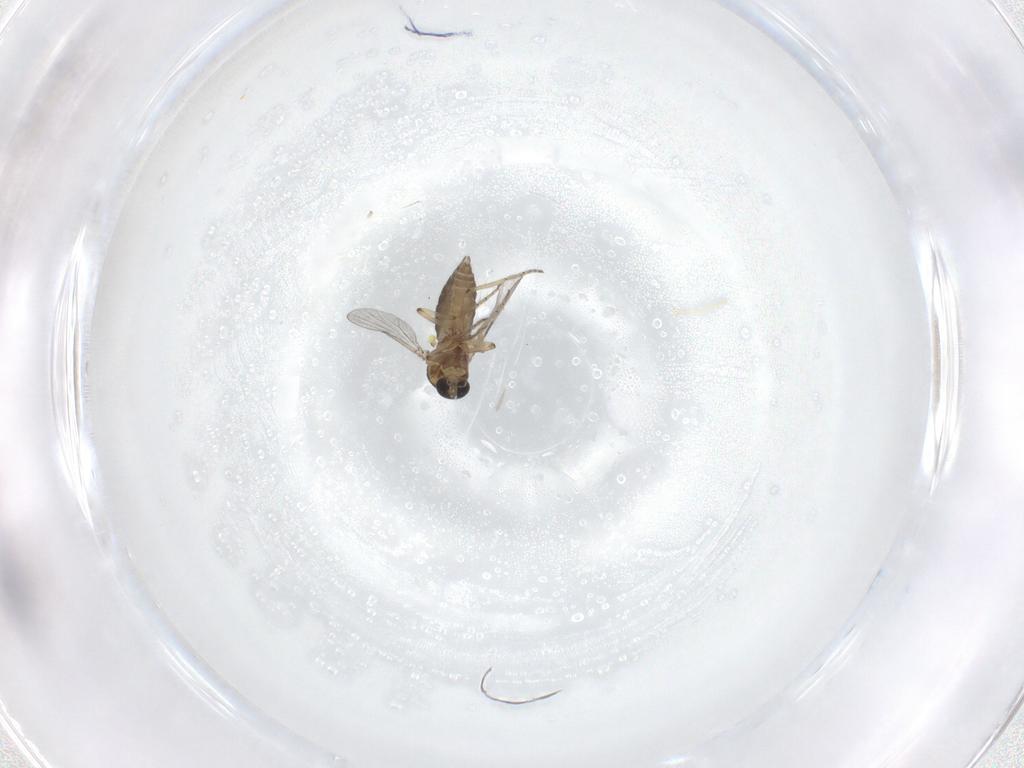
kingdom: Animalia
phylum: Arthropoda
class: Insecta
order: Diptera
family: Ceratopogonidae
